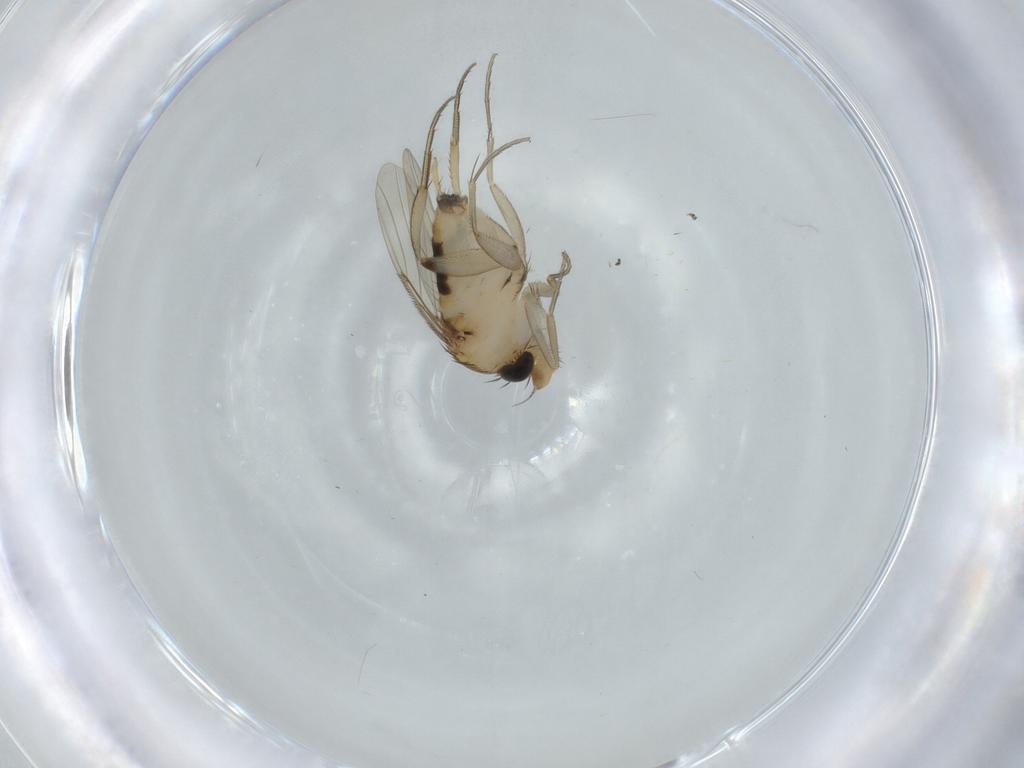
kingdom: Animalia
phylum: Arthropoda
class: Insecta
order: Diptera
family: Phoridae
